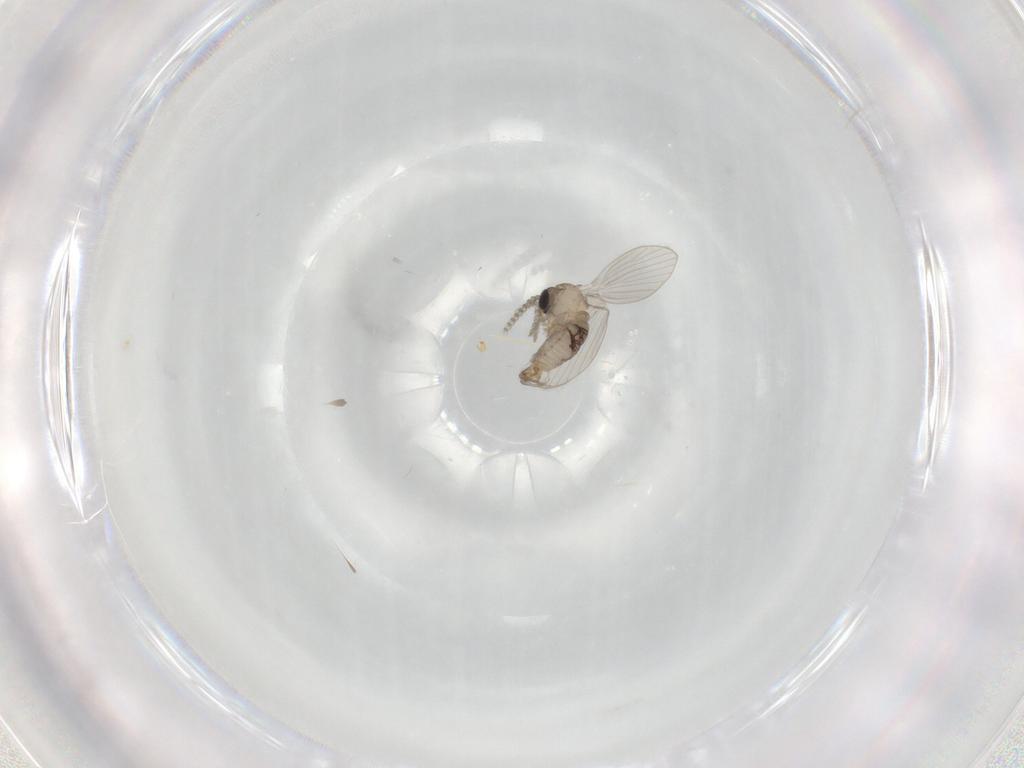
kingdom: Animalia
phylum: Arthropoda
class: Insecta
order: Diptera
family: Psychodidae
